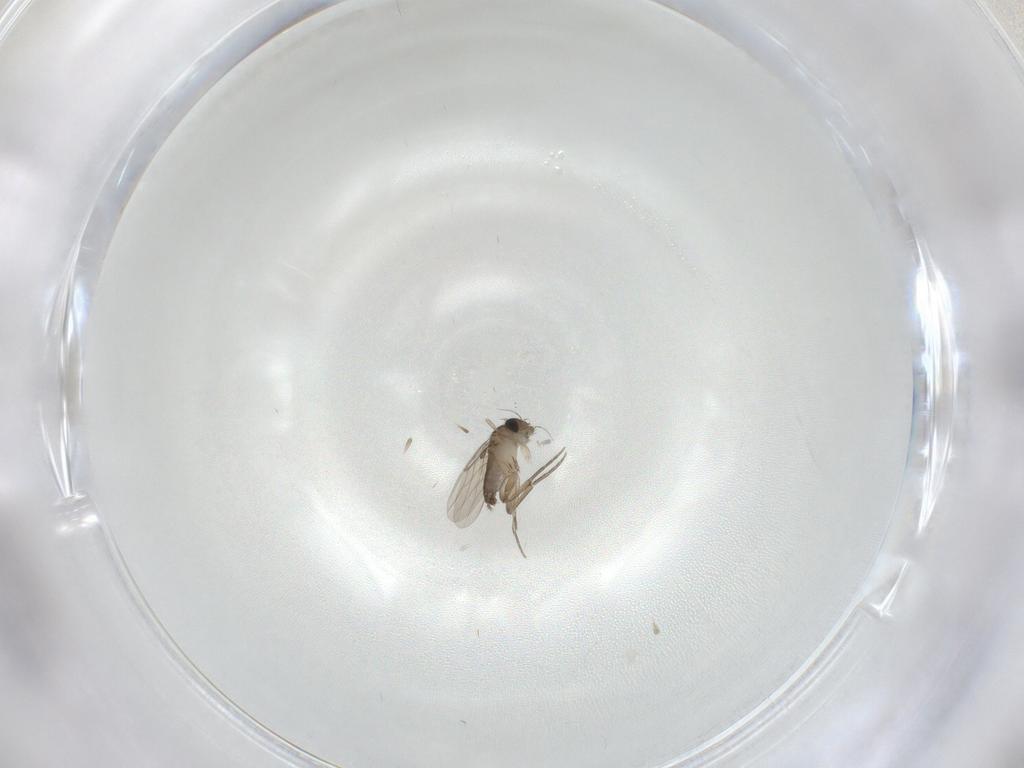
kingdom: Animalia
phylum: Arthropoda
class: Insecta
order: Diptera
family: Phoridae
